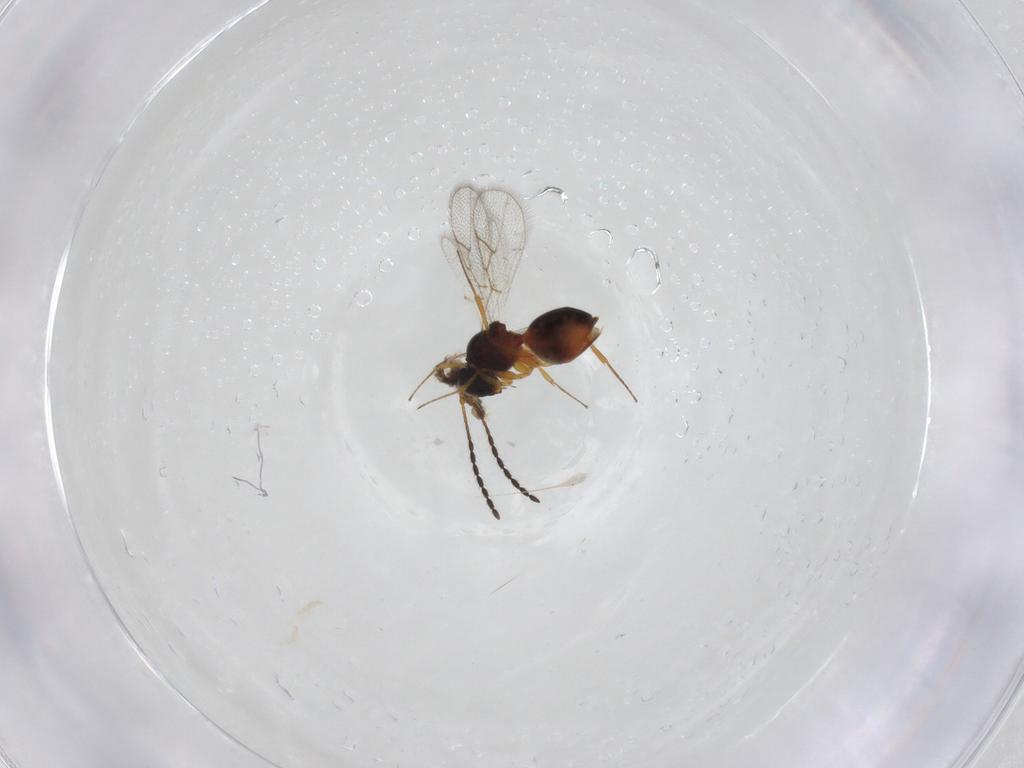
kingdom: Animalia
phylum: Arthropoda
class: Insecta
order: Hymenoptera
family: Figitidae
